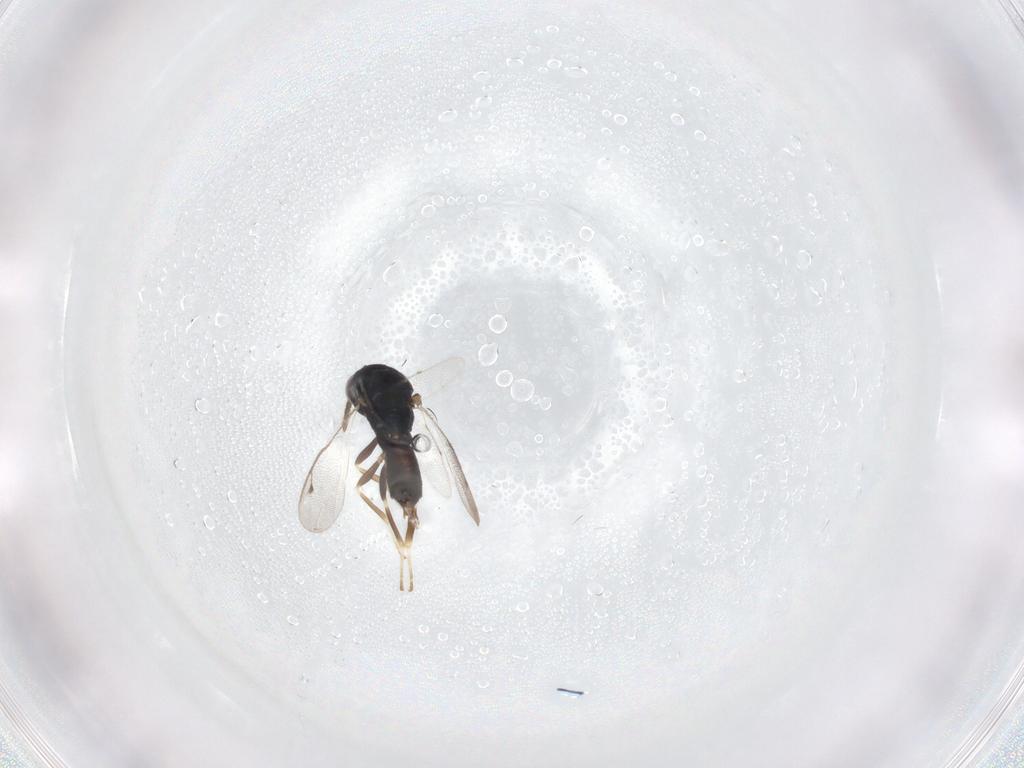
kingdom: Animalia
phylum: Arthropoda
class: Insecta
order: Hymenoptera
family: Pteromalidae
